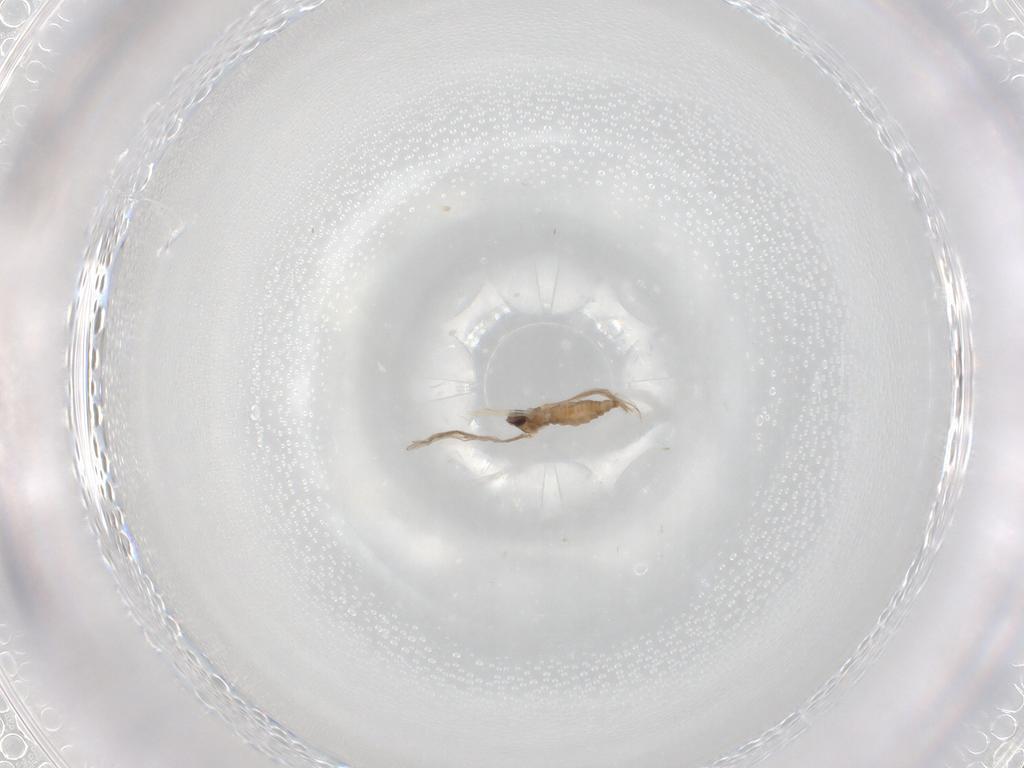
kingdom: Animalia
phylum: Arthropoda
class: Insecta
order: Diptera
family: Cecidomyiidae
